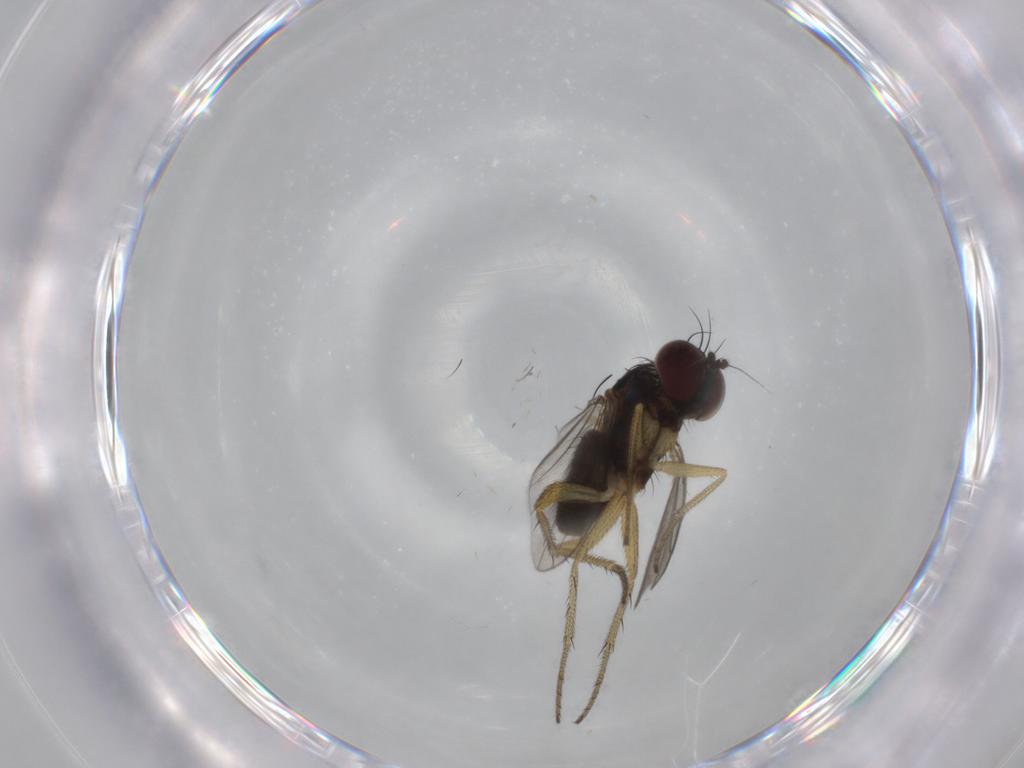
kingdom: Animalia
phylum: Arthropoda
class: Insecta
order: Diptera
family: Dolichopodidae
